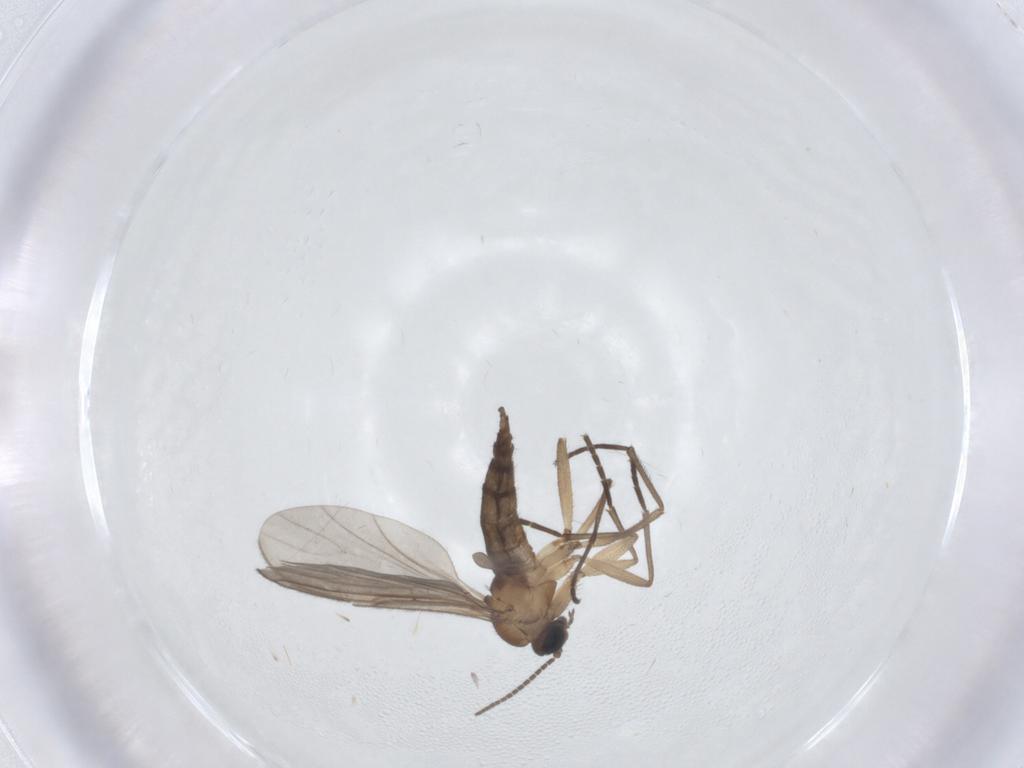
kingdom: Animalia
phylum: Arthropoda
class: Insecta
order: Diptera
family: Sciaridae
